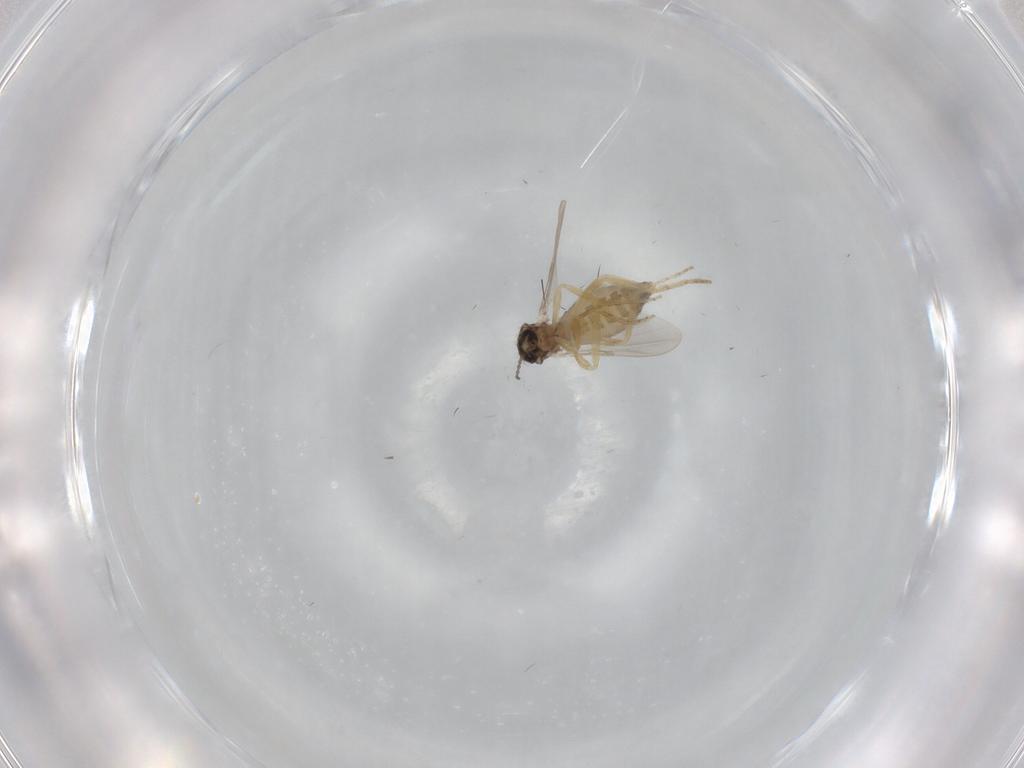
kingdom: Animalia
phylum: Arthropoda
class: Insecta
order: Diptera
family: Ceratopogonidae
